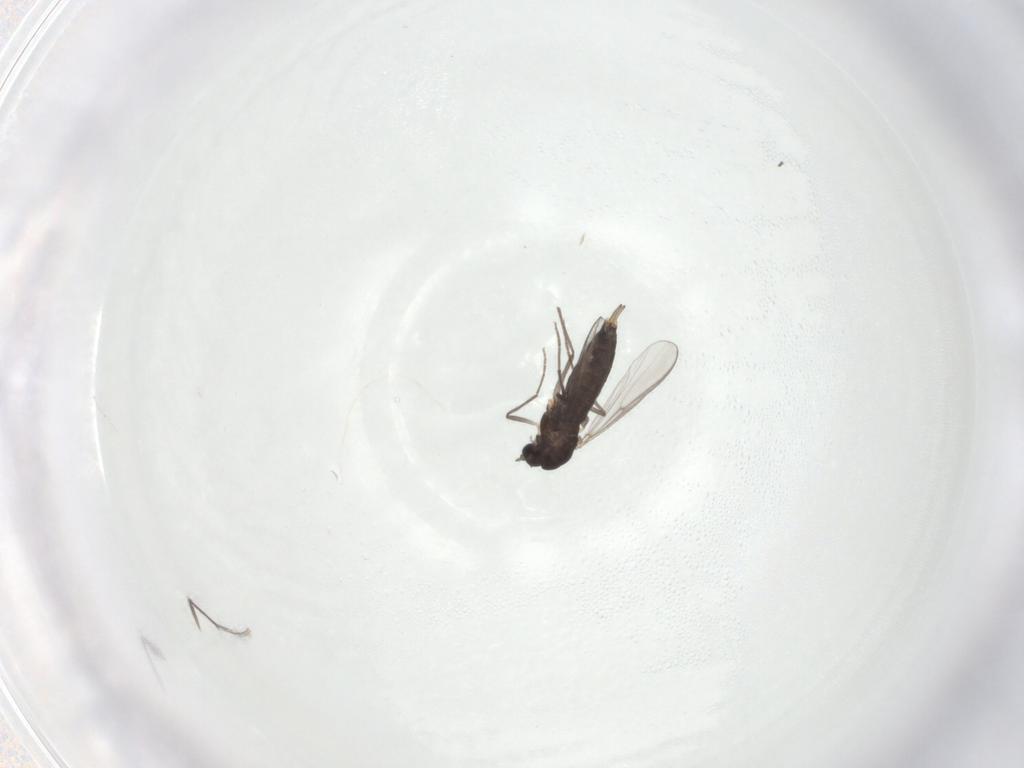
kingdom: Animalia
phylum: Arthropoda
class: Insecta
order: Diptera
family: Chironomidae
